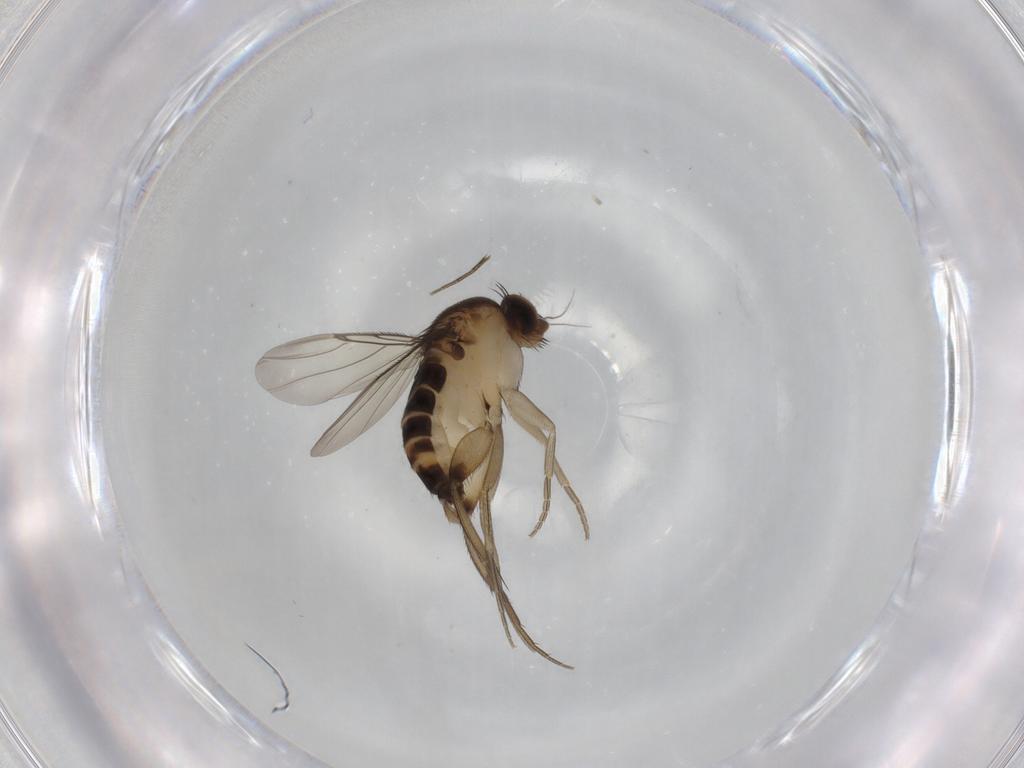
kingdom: Animalia
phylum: Arthropoda
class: Insecta
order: Diptera
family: Phoridae
